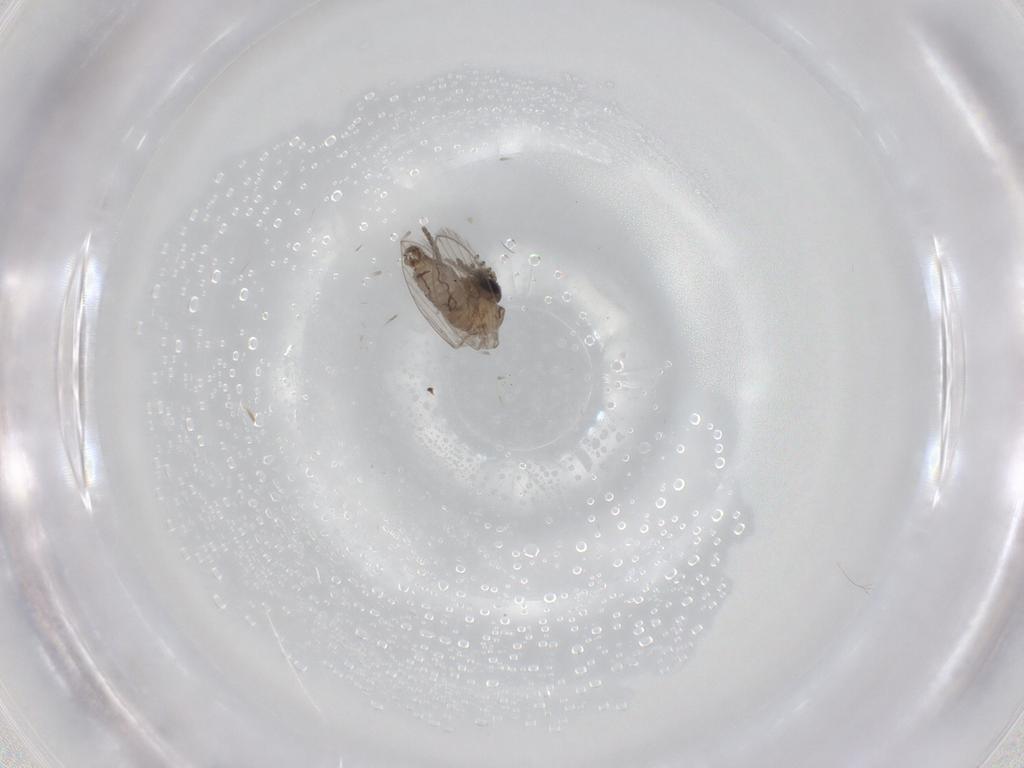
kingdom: Animalia
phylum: Arthropoda
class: Insecta
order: Diptera
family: Psychodidae
